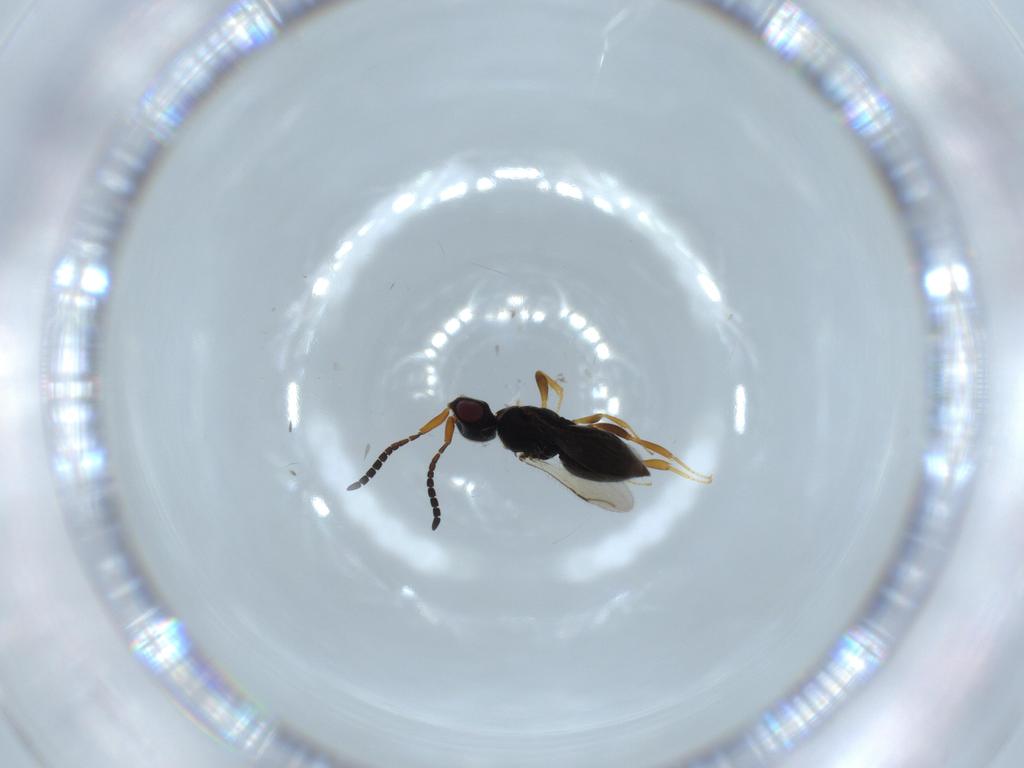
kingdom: Animalia
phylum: Arthropoda
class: Insecta
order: Hymenoptera
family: Ceraphronidae
